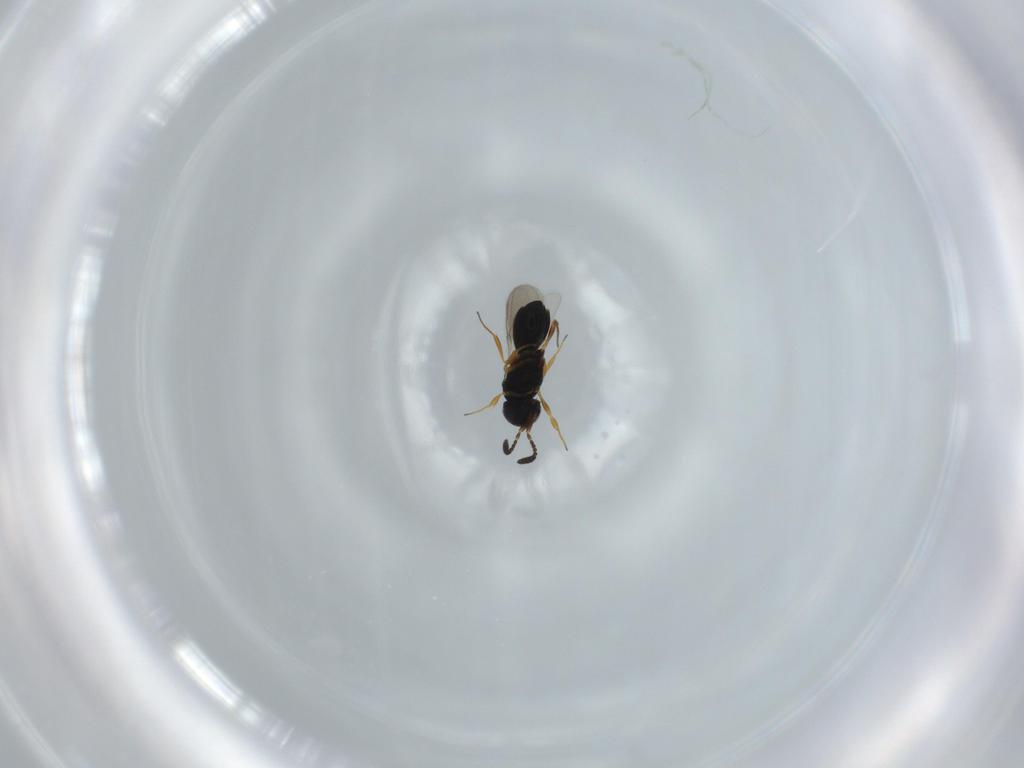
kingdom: Animalia
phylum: Arthropoda
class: Insecta
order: Hymenoptera
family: Scelionidae
